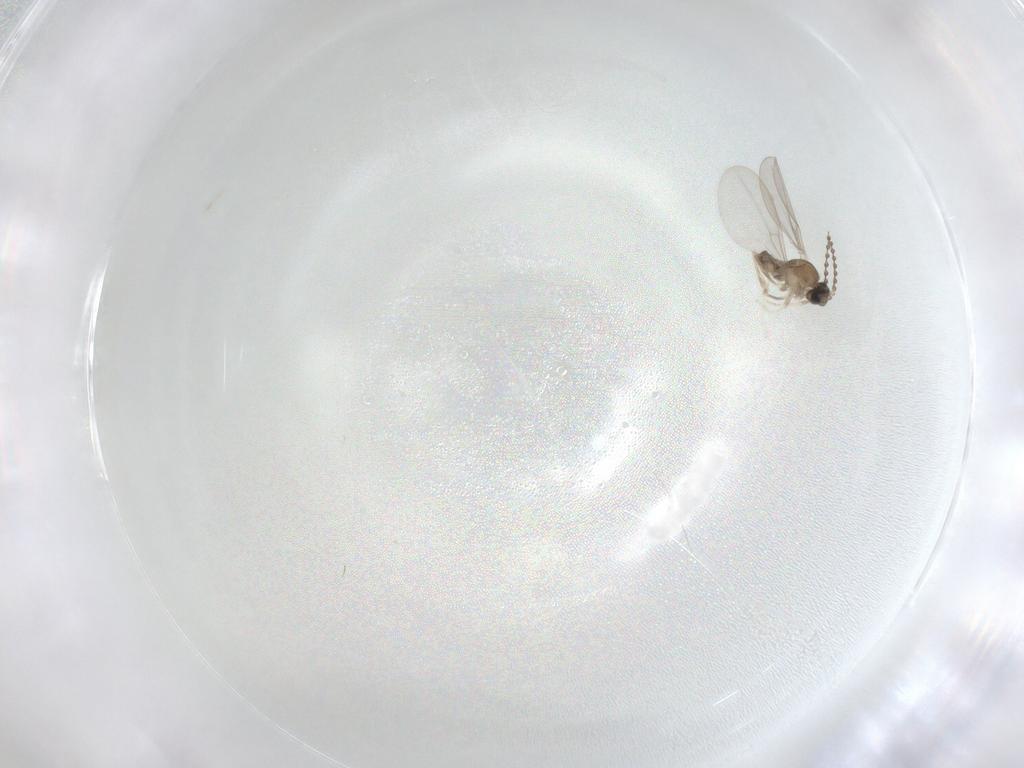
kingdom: Animalia
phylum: Arthropoda
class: Insecta
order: Diptera
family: Cecidomyiidae
